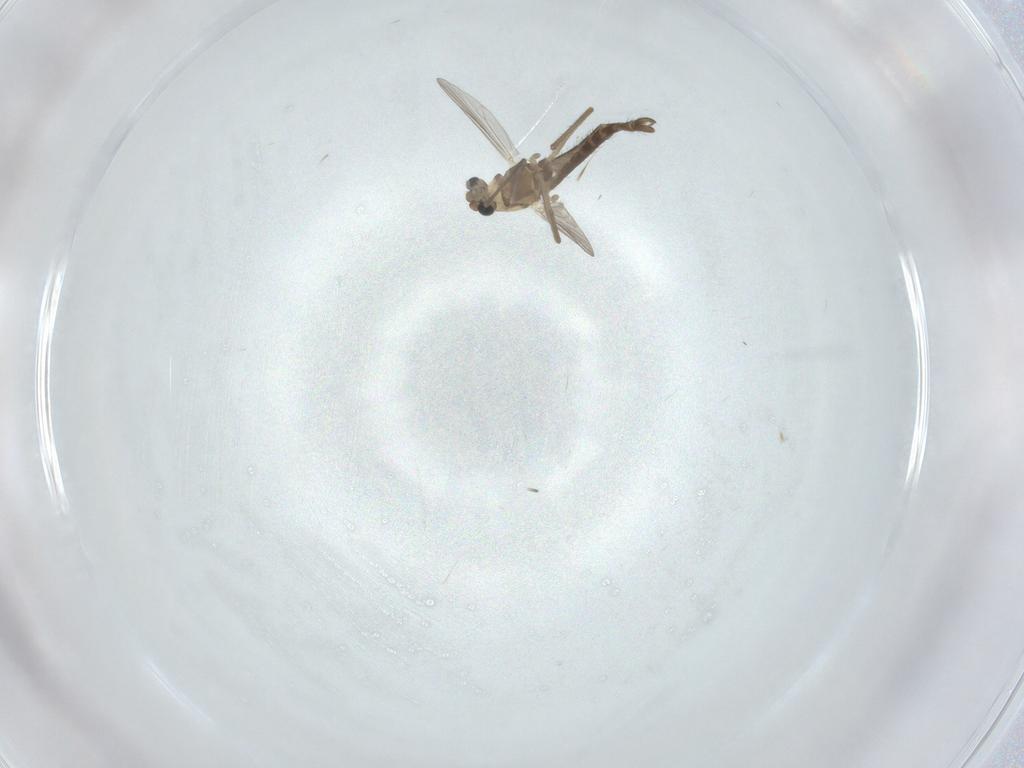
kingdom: Animalia
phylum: Arthropoda
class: Insecta
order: Diptera
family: Chironomidae
